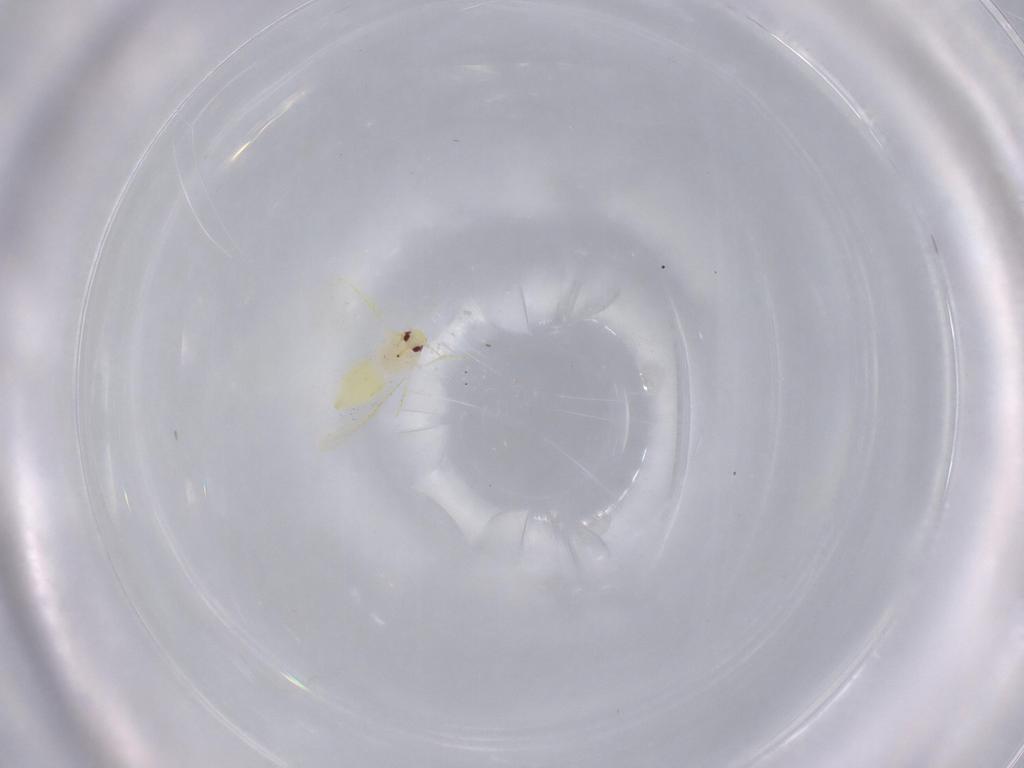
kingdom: Animalia
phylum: Arthropoda
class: Insecta
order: Hemiptera
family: Aleyrodidae
